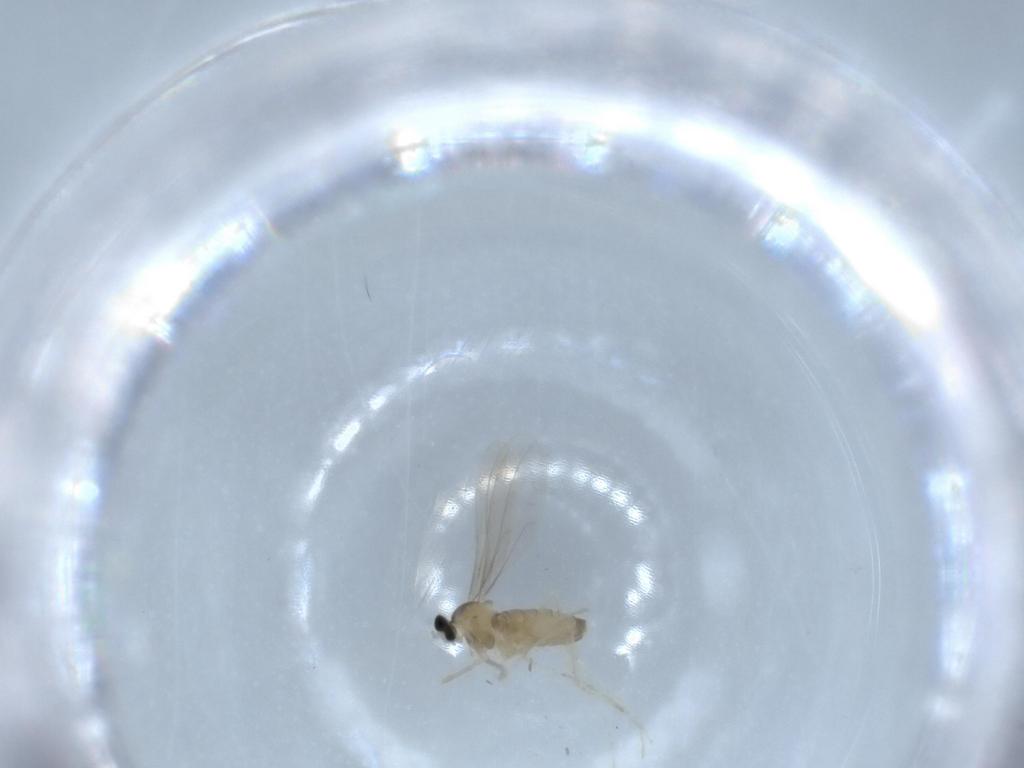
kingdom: Animalia
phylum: Arthropoda
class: Insecta
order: Diptera
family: Cecidomyiidae
